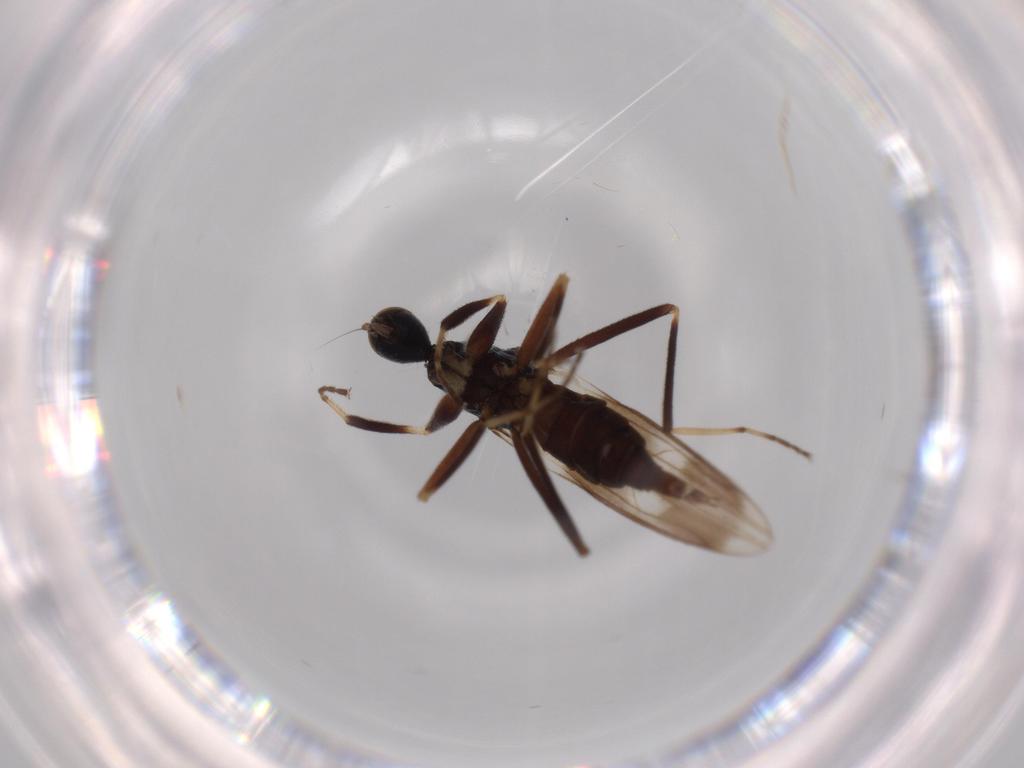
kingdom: Animalia
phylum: Arthropoda
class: Insecta
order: Diptera
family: Hybotidae
